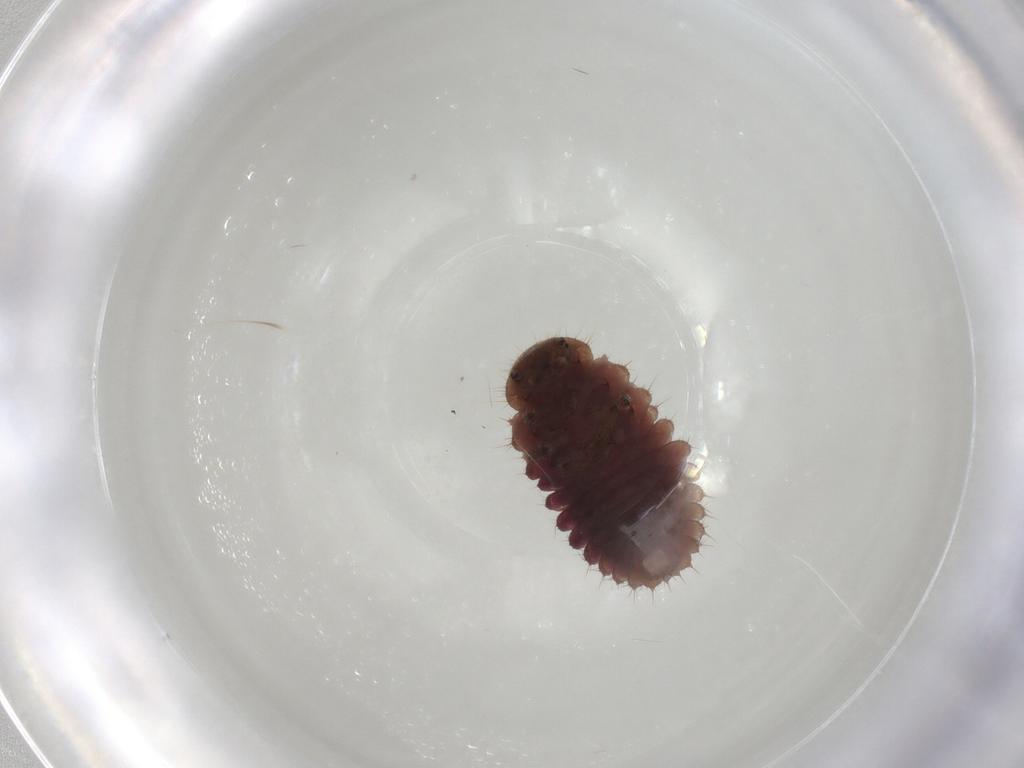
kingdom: Animalia
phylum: Arthropoda
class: Insecta
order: Coleoptera
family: Coccinellidae
